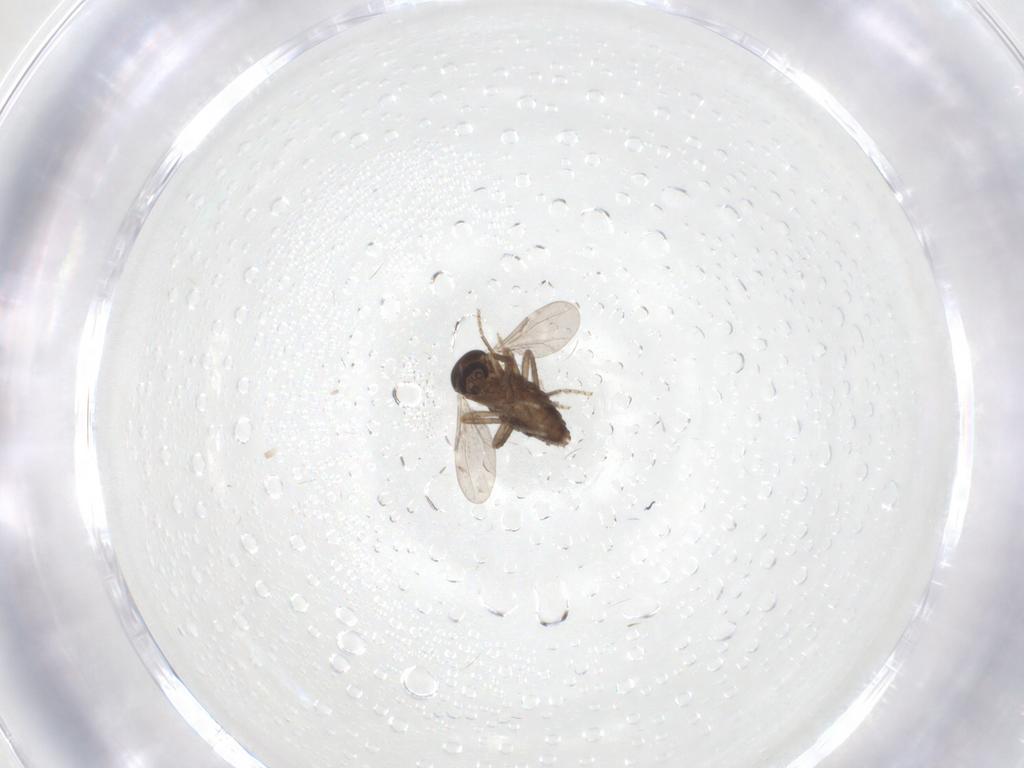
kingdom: Animalia
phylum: Arthropoda
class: Insecta
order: Diptera
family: Ceratopogonidae
